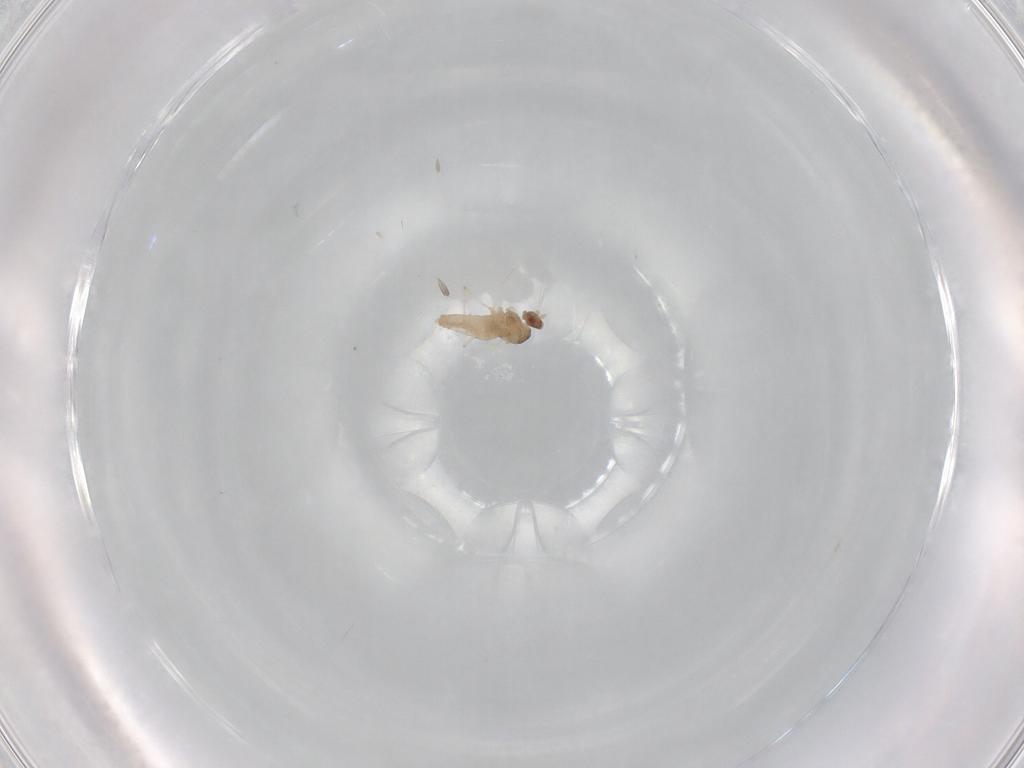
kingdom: Animalia
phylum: Arthropoda
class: Insecta
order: Diptera
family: Cecidomyiidae
